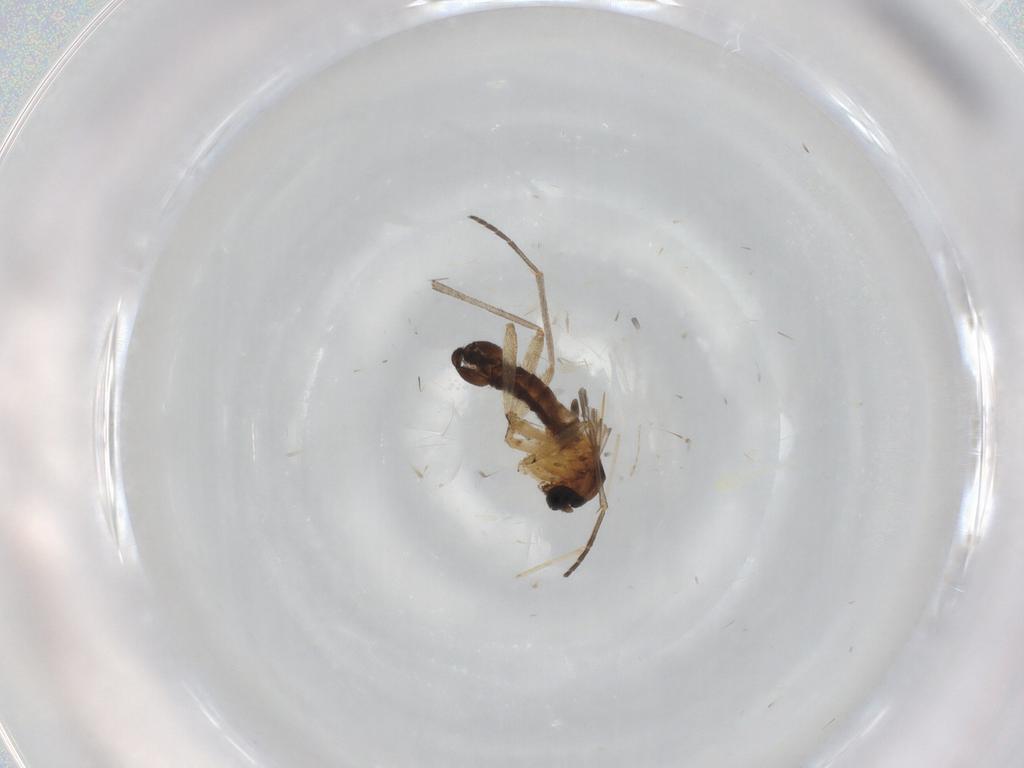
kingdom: Animalia
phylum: Arthropoda
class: Insecta
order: Diptera
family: Sciaridae
